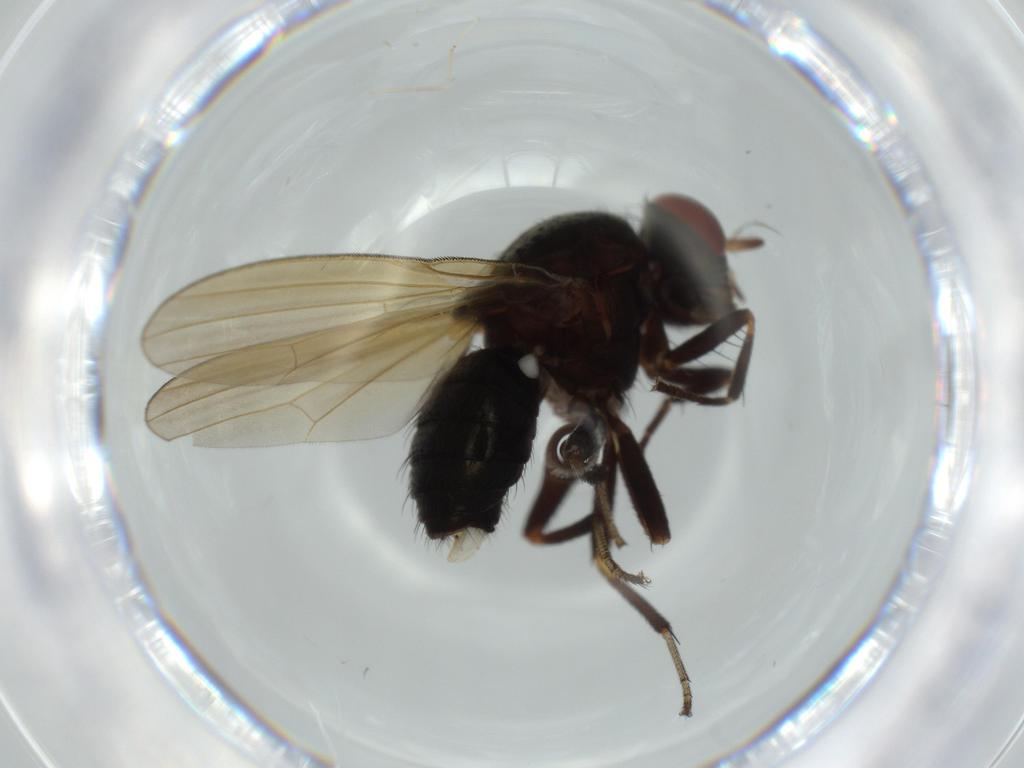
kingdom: Animalia
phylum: Arthropoda
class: Insecta
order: Diptera
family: Lauxaniidae
